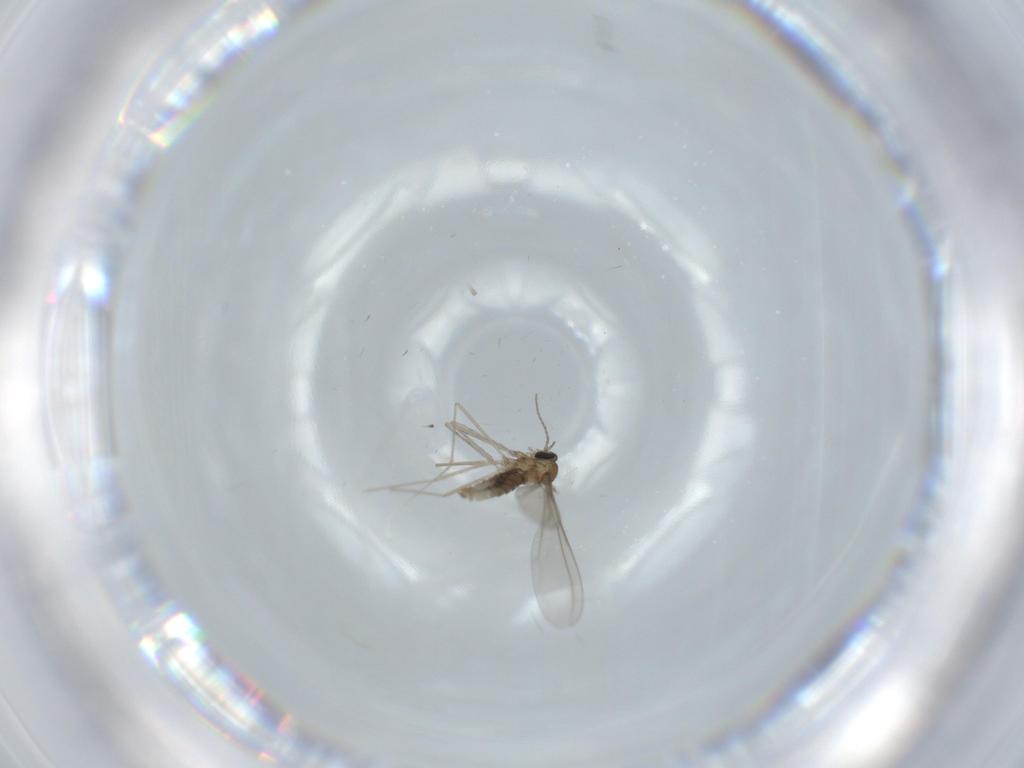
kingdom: Animalia
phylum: Arthropoda
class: Insecta
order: Diptera
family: Cecidomyiidae
